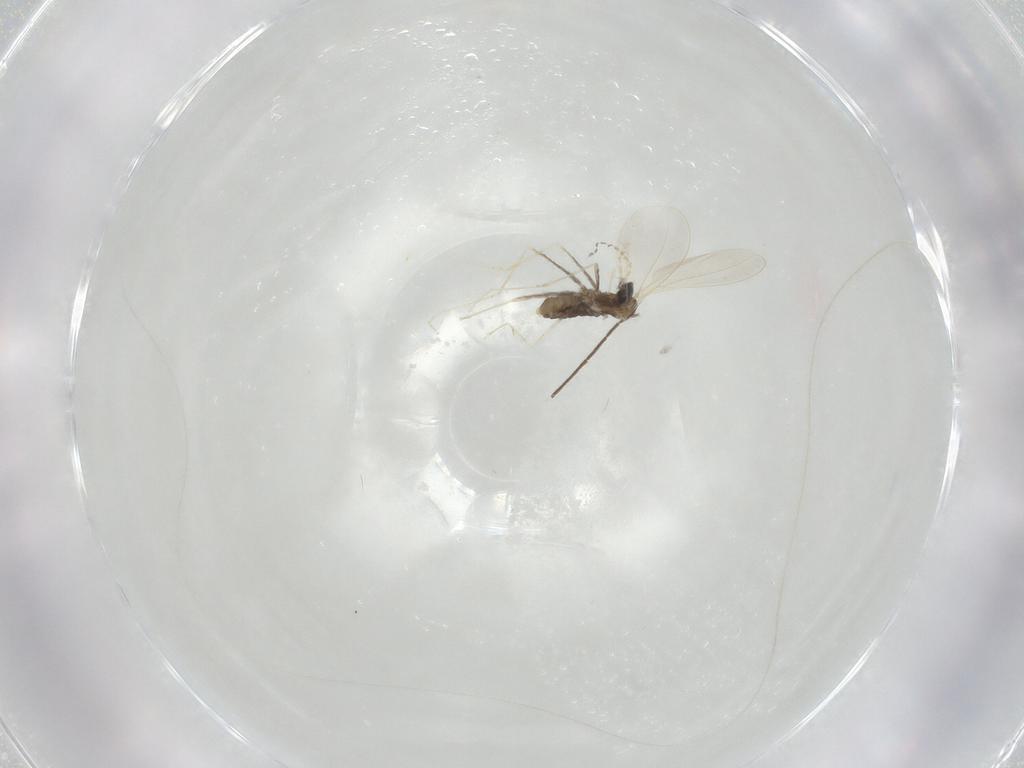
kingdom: Animalia
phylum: Arthropoda
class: Insecta
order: Diptera
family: Cecidomyiidae
